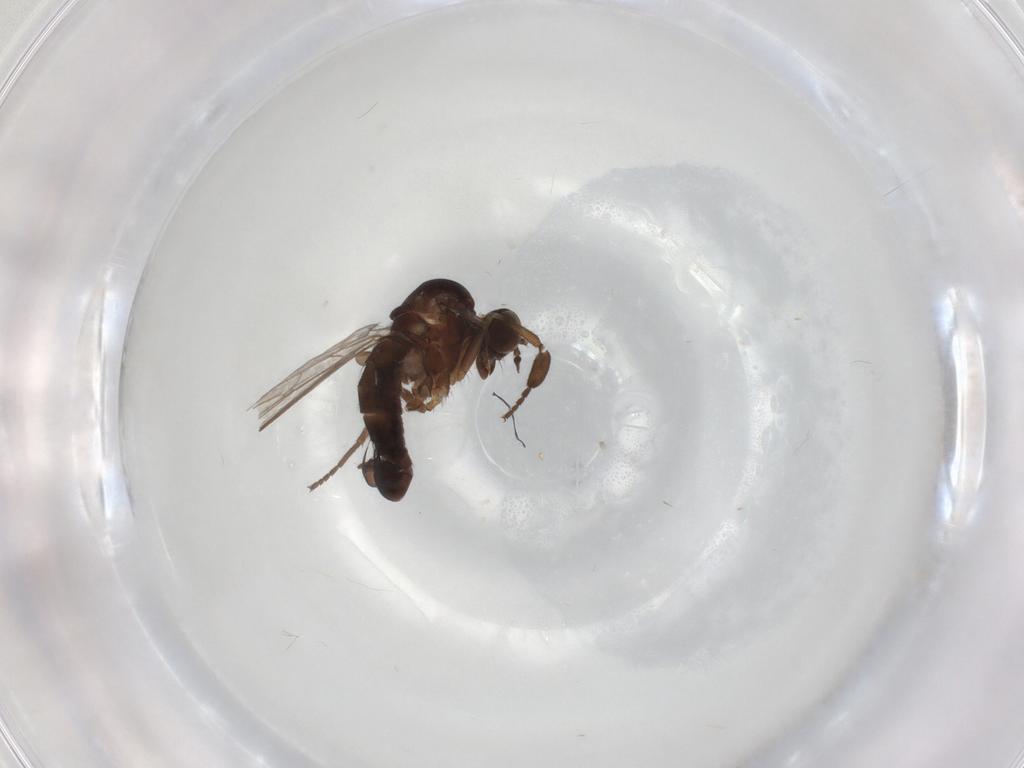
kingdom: Animalia
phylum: Arthropoda
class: Insecta
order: Diptera
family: Empididae
